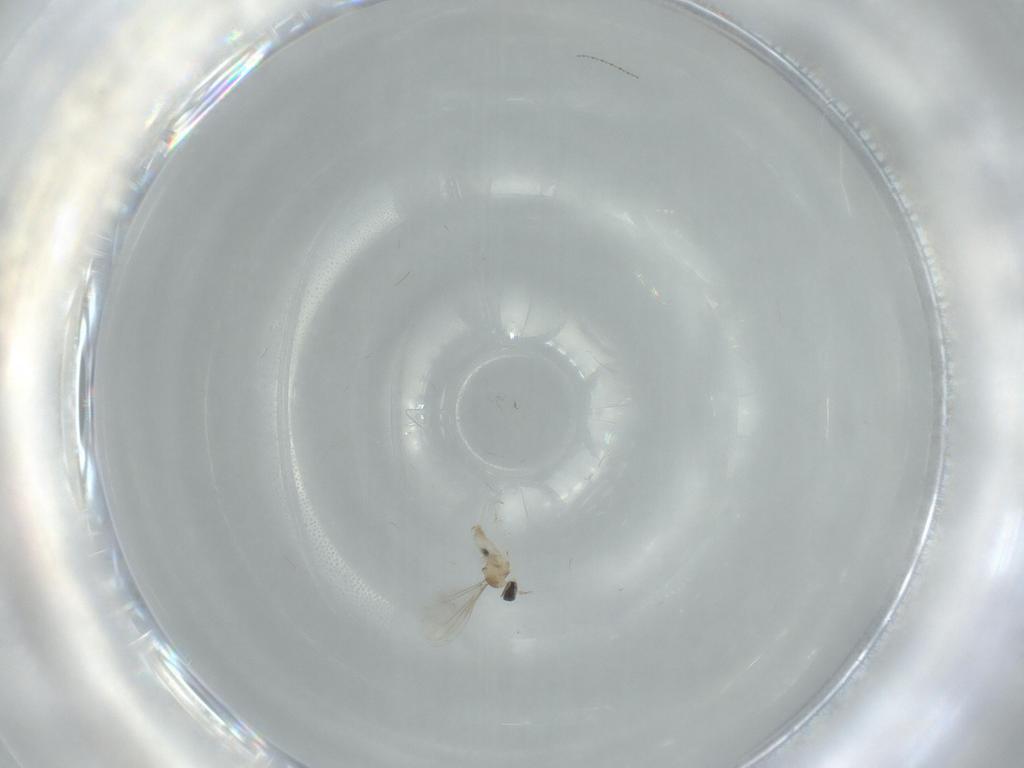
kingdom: Animalia
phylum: Arthropoda
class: Insecta
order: Diptera
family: Cecidomyiidae
